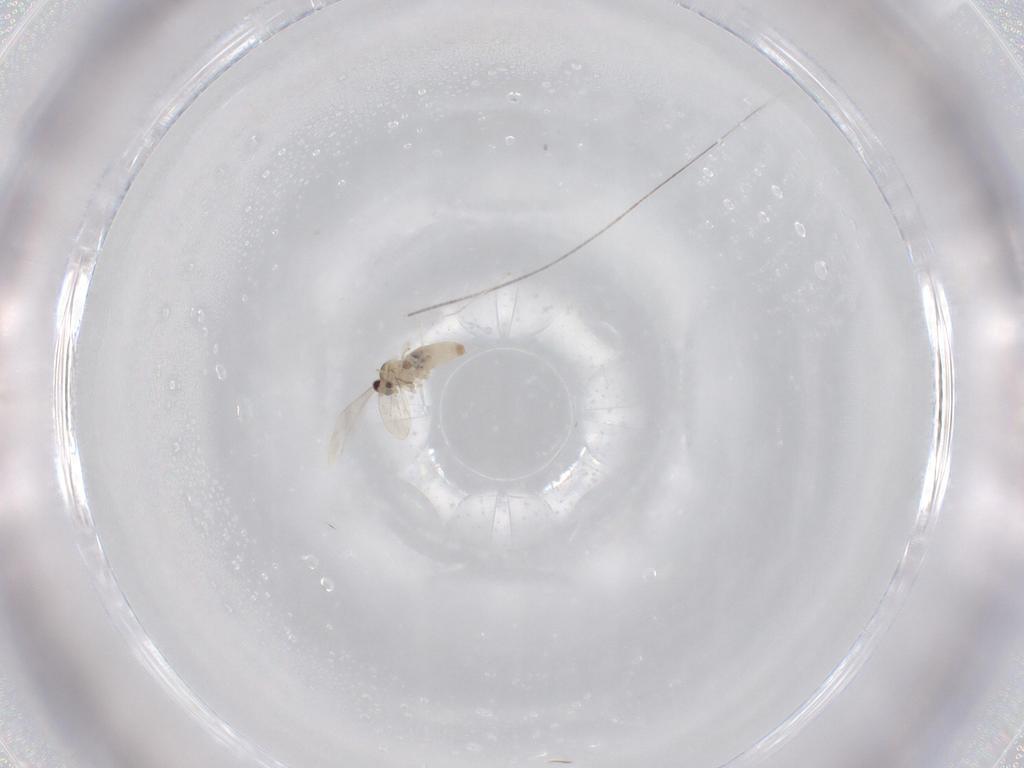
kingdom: Animalia
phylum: Arthropoda
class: Insecta
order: Diptera
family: Cecidomyiidae
